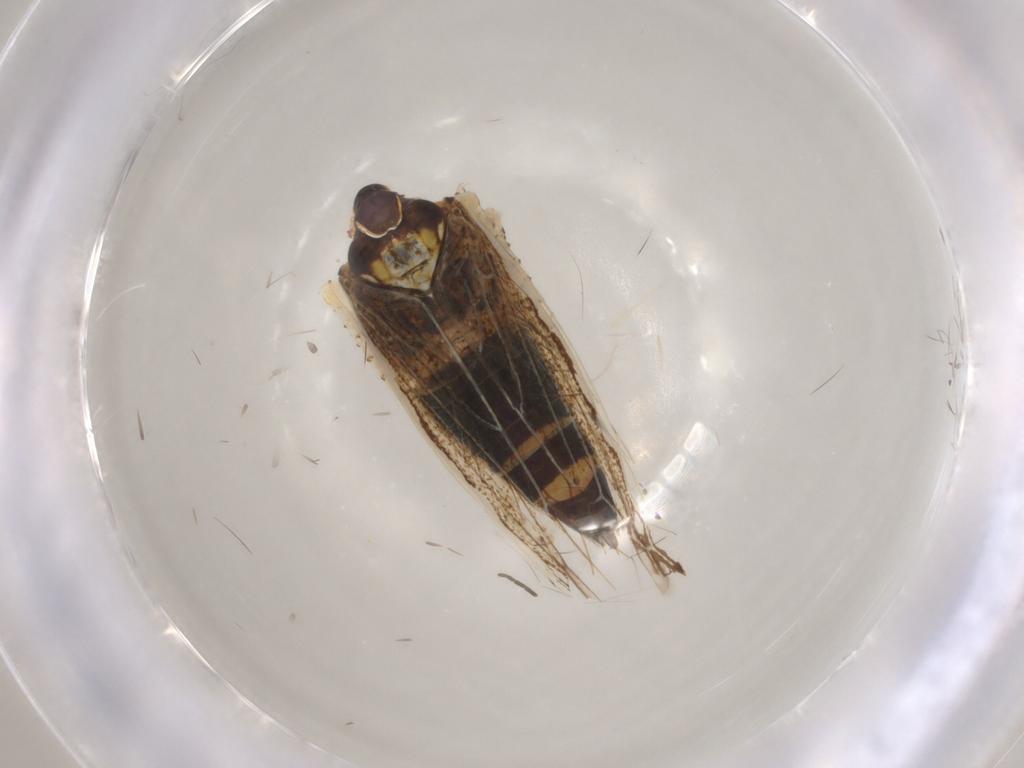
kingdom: Animalia
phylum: Arthropoda
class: Insecta
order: Hemiptera
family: Cicadellidae
